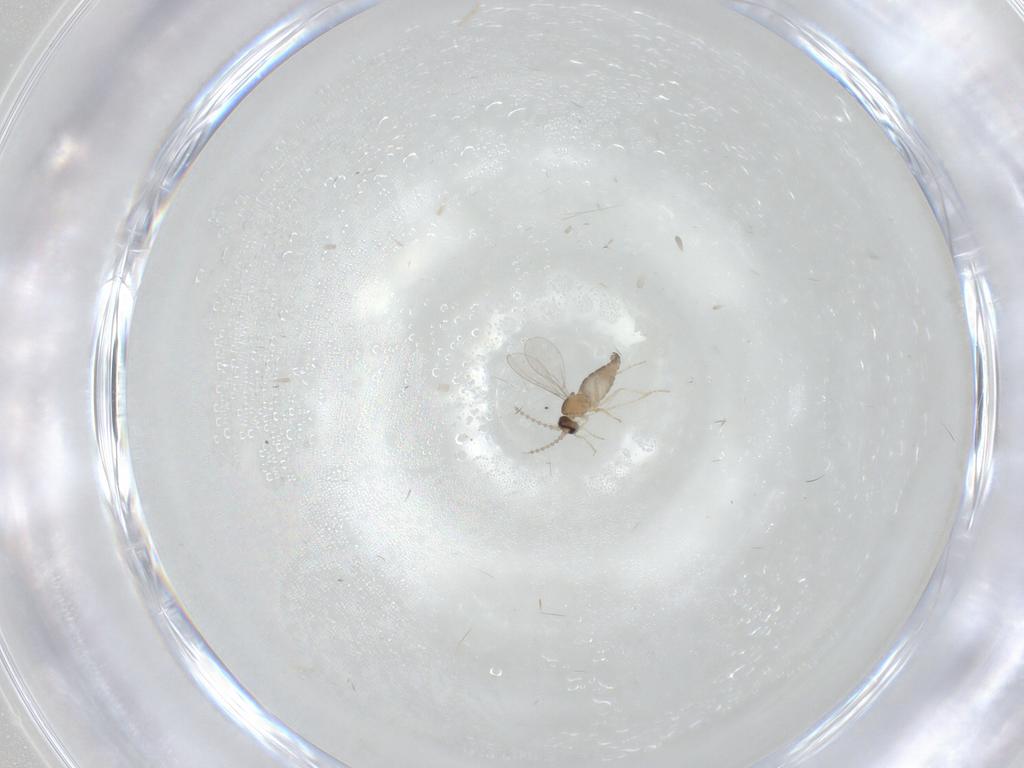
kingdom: Animalia
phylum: Arthropoda
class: Insecta
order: Diptera
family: Cecidomyiidae
